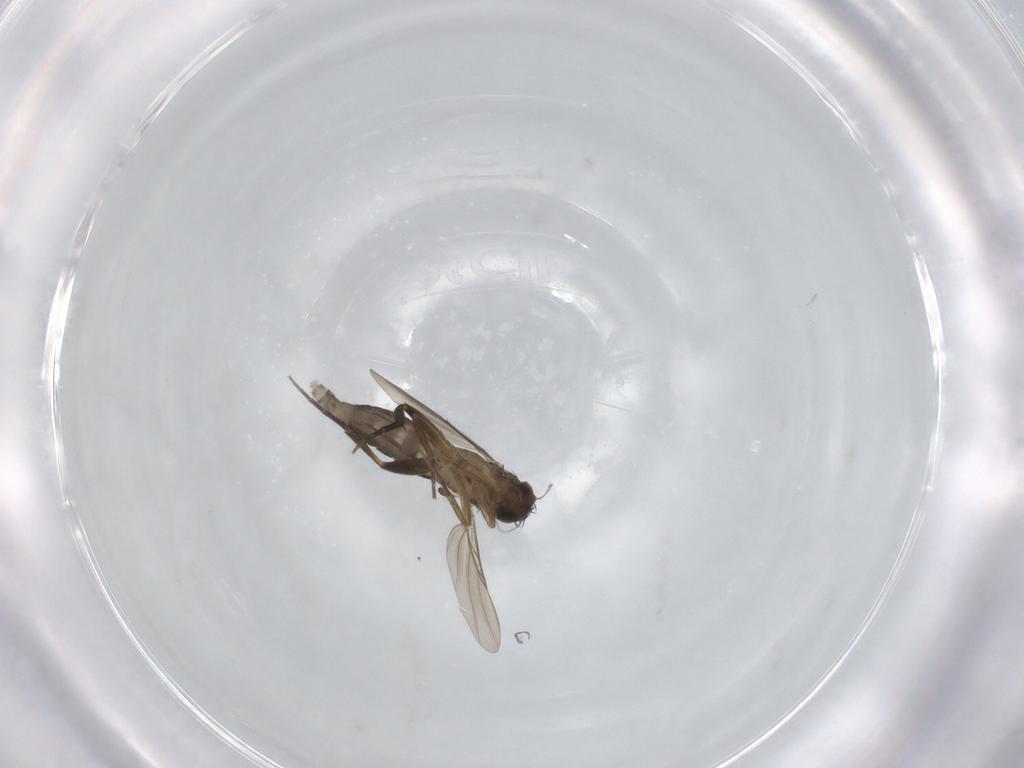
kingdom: Animalia
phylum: Arthropoda
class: Insecta
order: Diptera
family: Phoridae
